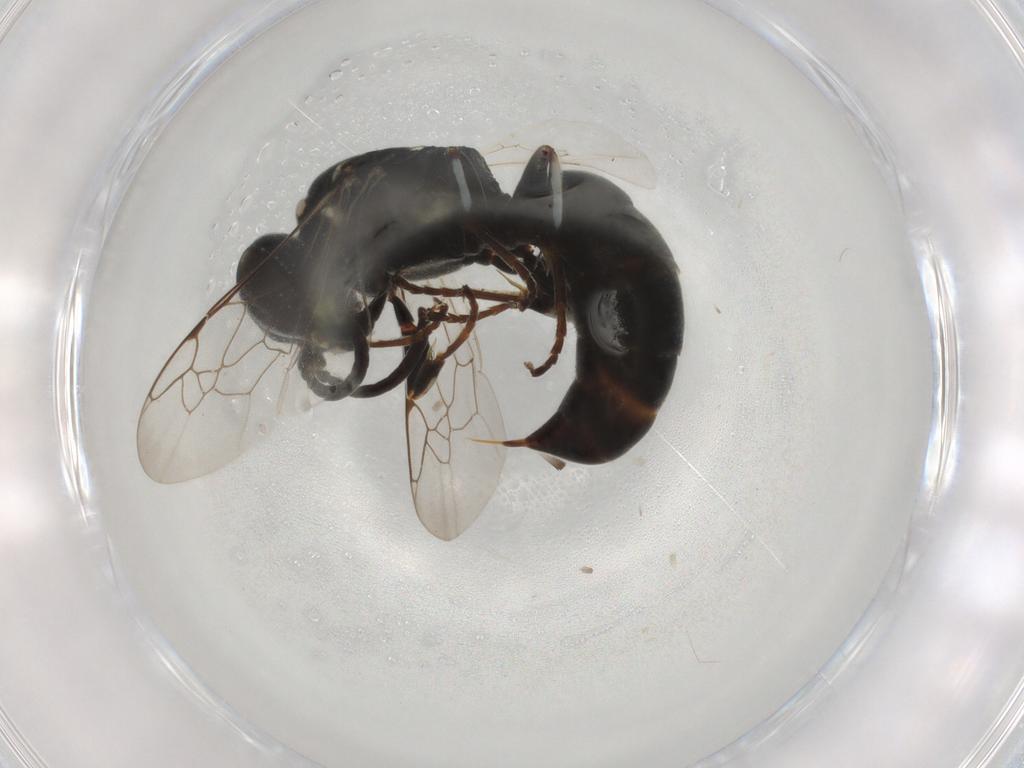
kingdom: Animalia
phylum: Arthropoda
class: Insecta
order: Hymenoptera
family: Crabronidae
